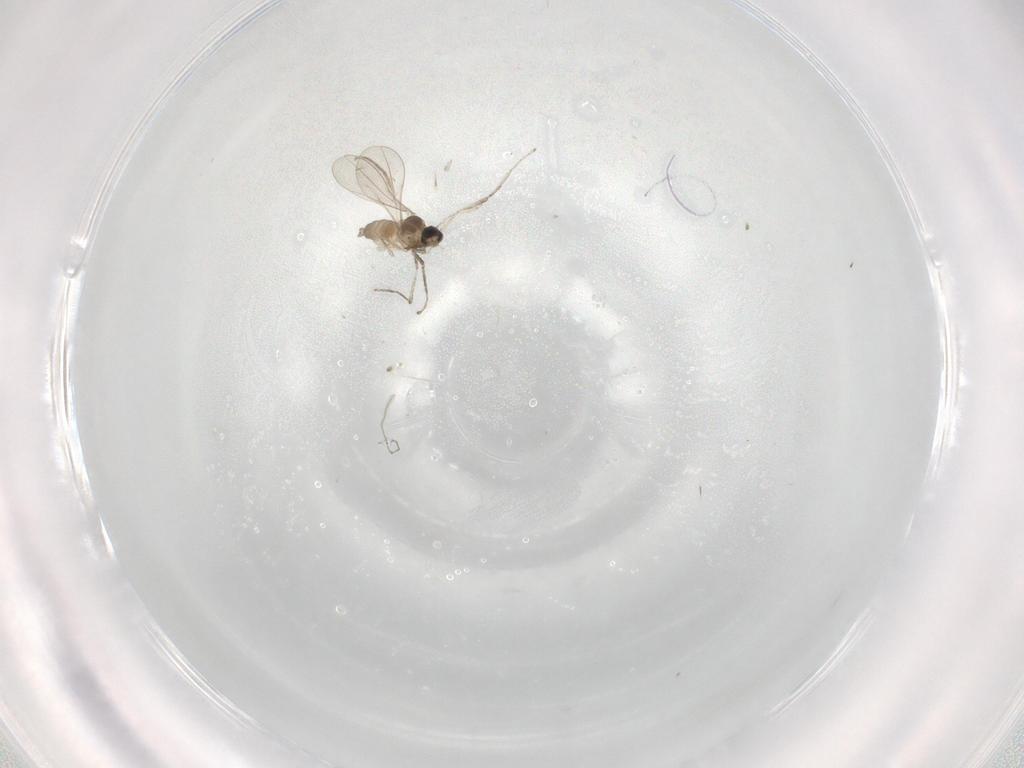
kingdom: Animalia
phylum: Arthropoda
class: Insecta
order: Diptera
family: Cecidomyiidae
